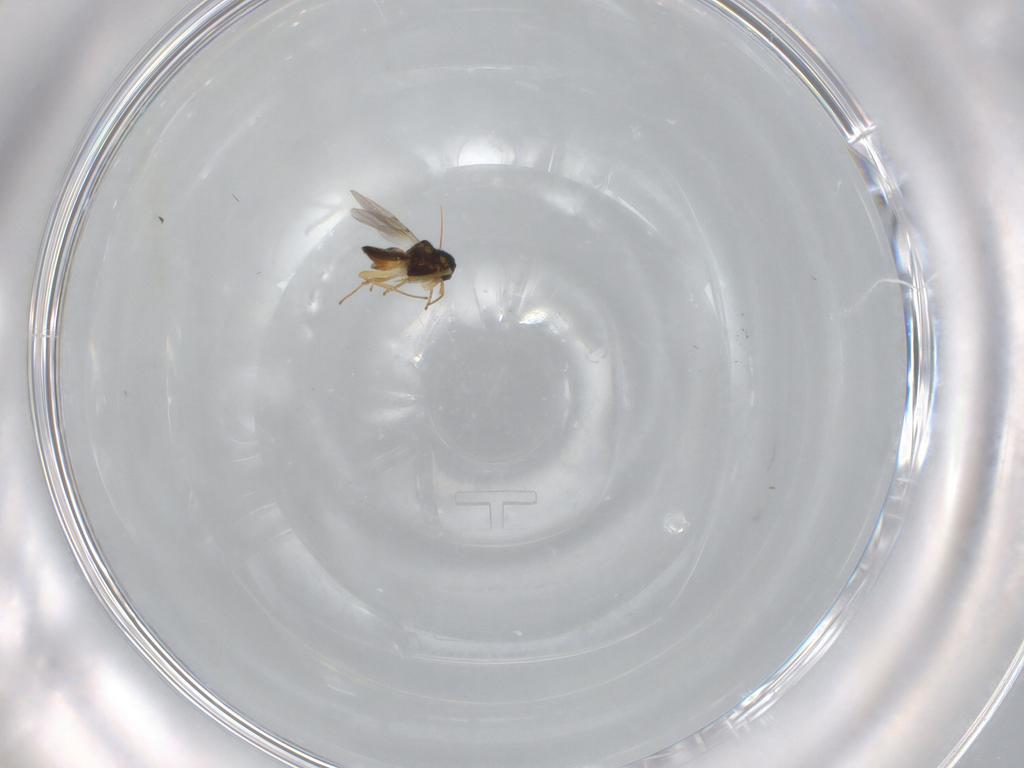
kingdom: Animalia
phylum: Arthropoda
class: Insecta
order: Hymenoptera
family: Encyrtidae
